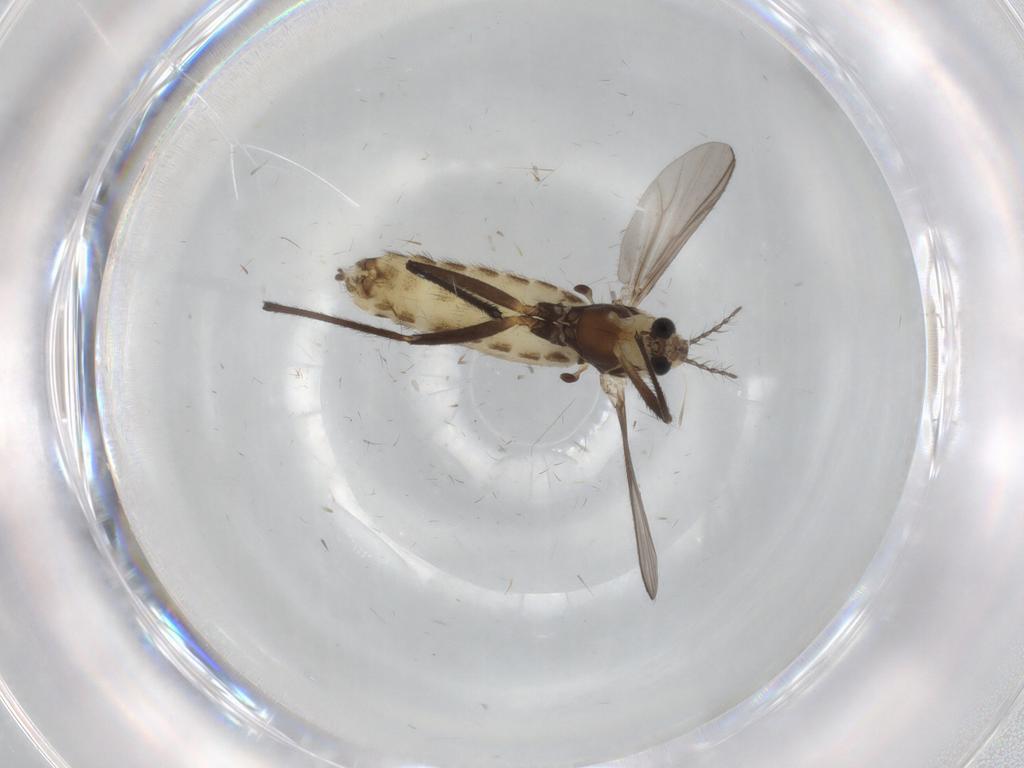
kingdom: Animalia
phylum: Arthropoda
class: Insecta
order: Diptera
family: Chironomidae
